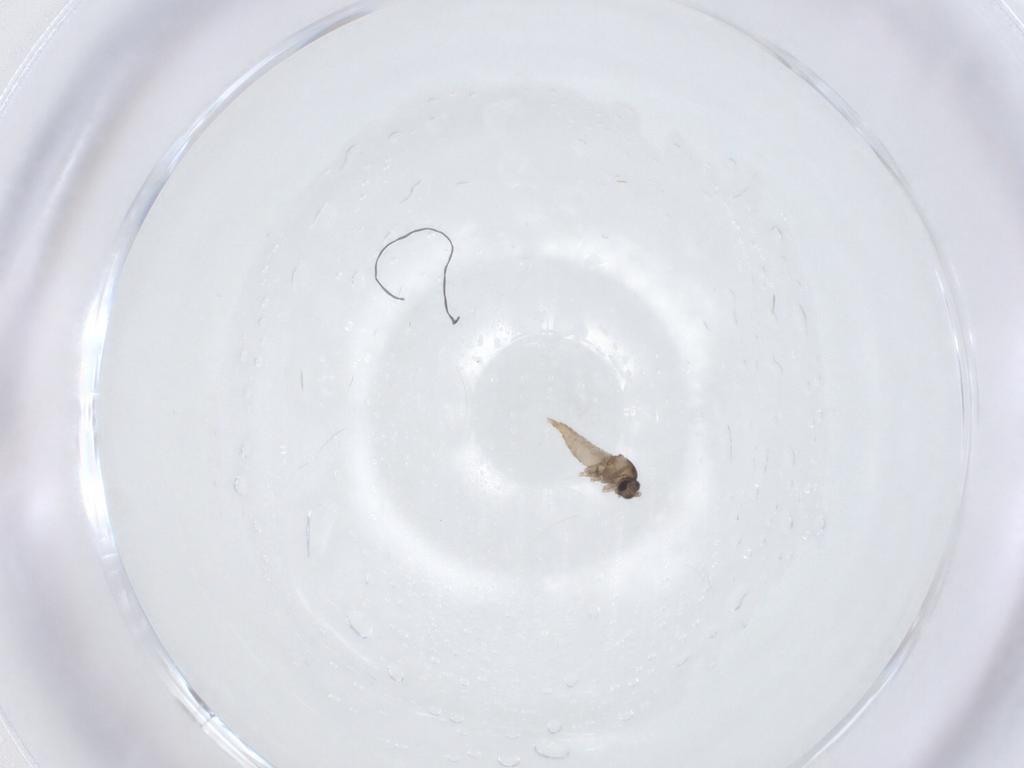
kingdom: Animalia
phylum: Arthropoda
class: Insecta
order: Diptera
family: Cecidomyiidae
